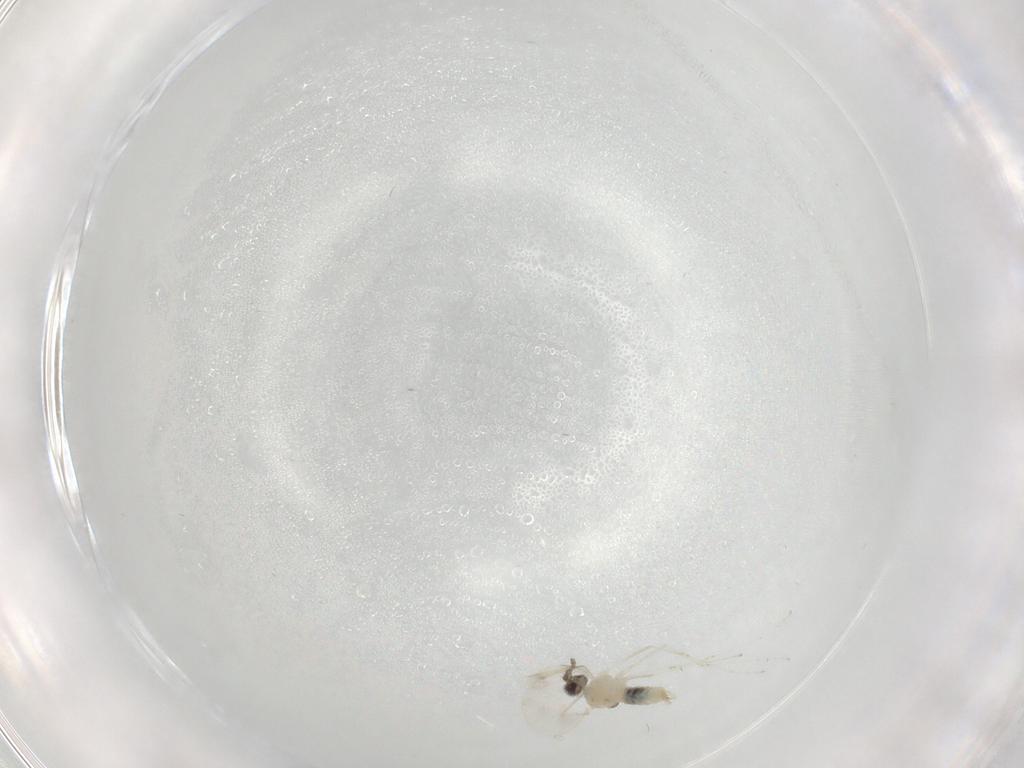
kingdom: Animalia
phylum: Arthropoda
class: Insecta
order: Diptera
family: Cecidomyiidae
